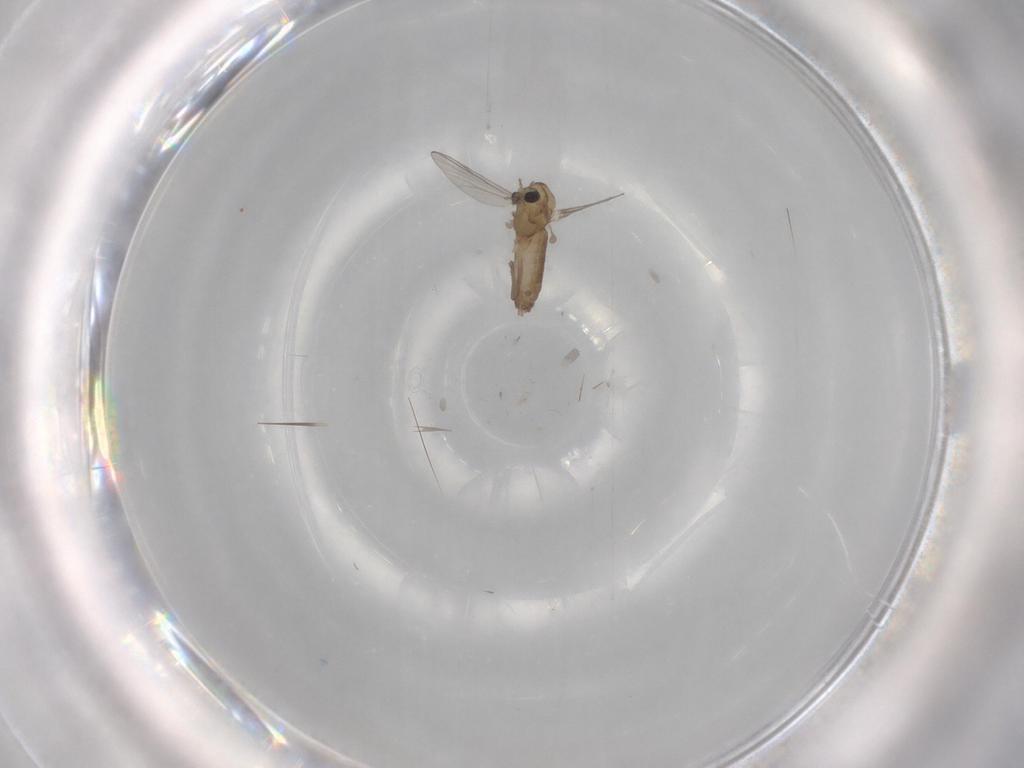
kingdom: Animalia
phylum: Arthropoda
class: Insecta
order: Diptera
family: Chironomidae
